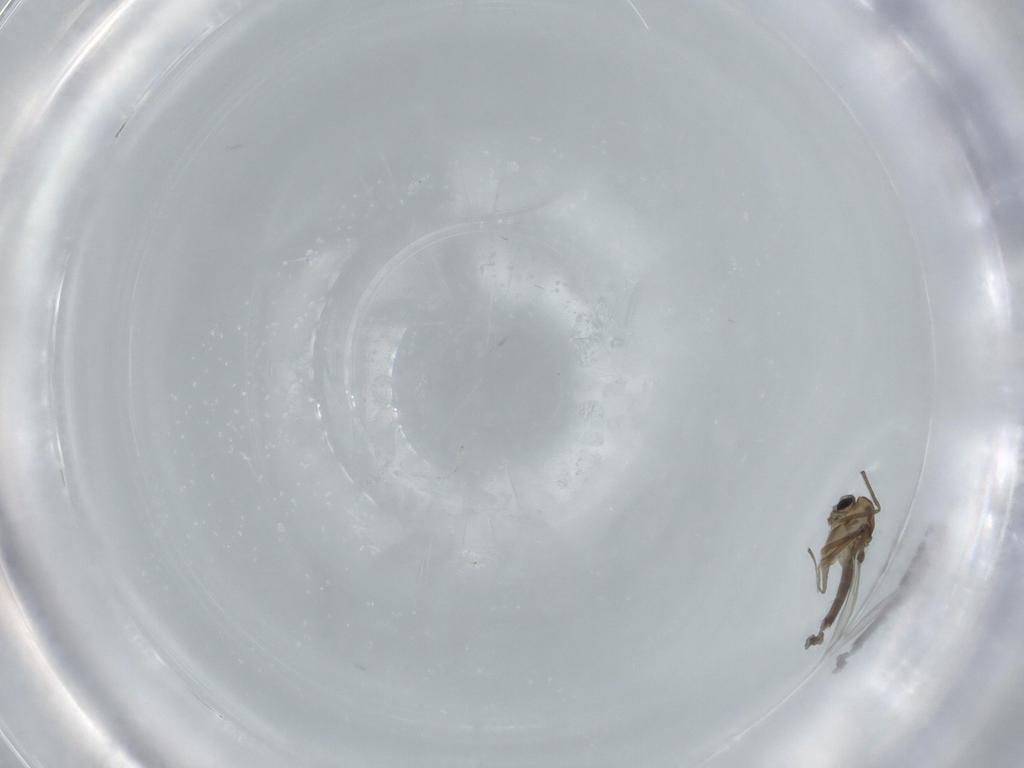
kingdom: Animalia
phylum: Arthropoda
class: Insecta
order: Diptera
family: Chironomidae
